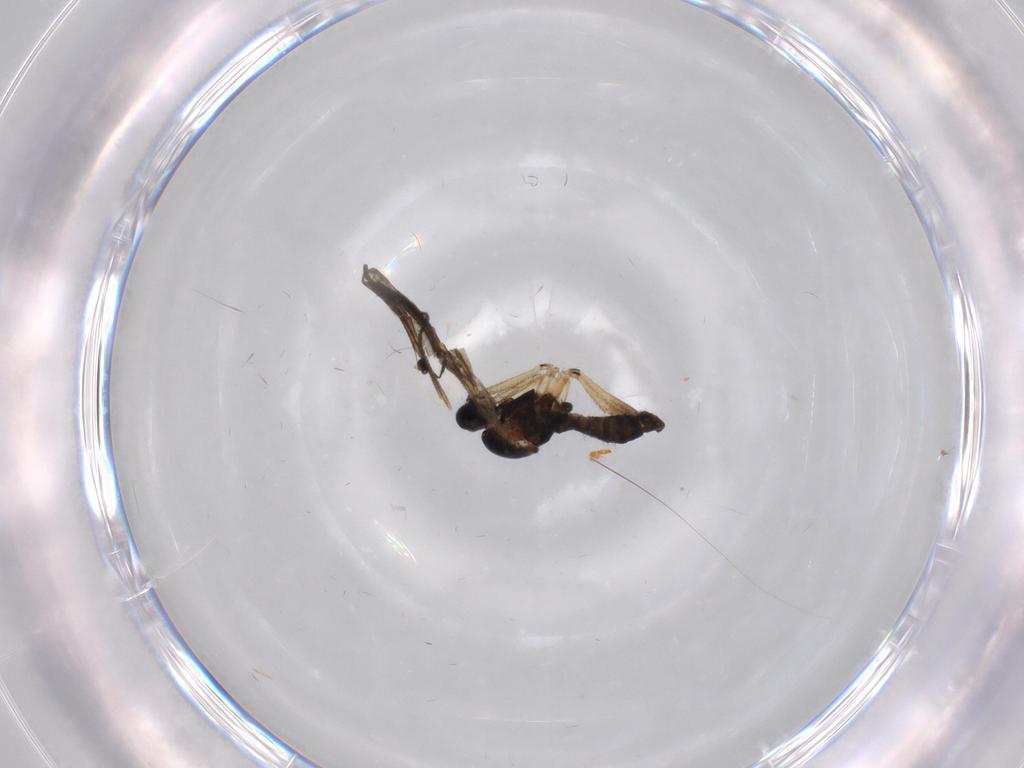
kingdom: Animalia
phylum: Arthropoda
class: Insecta
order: Diptera
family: Sciaridae
